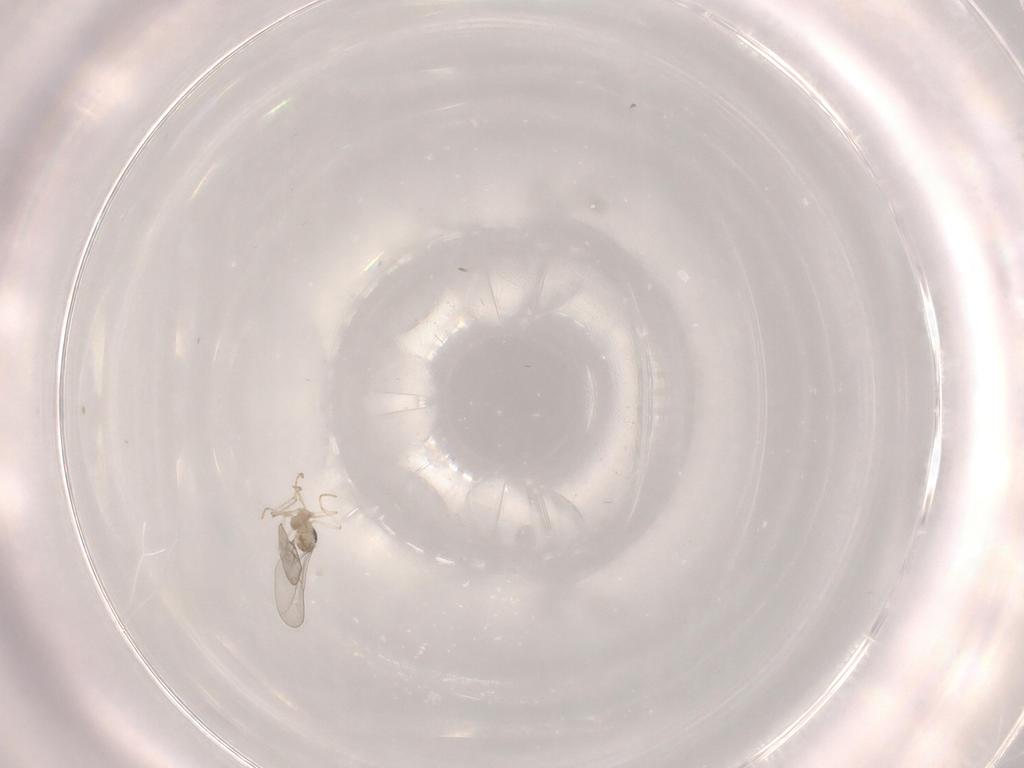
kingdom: Animalia
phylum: Arthropoda
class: Insecta
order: Diptera
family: Cecidomyiidae
